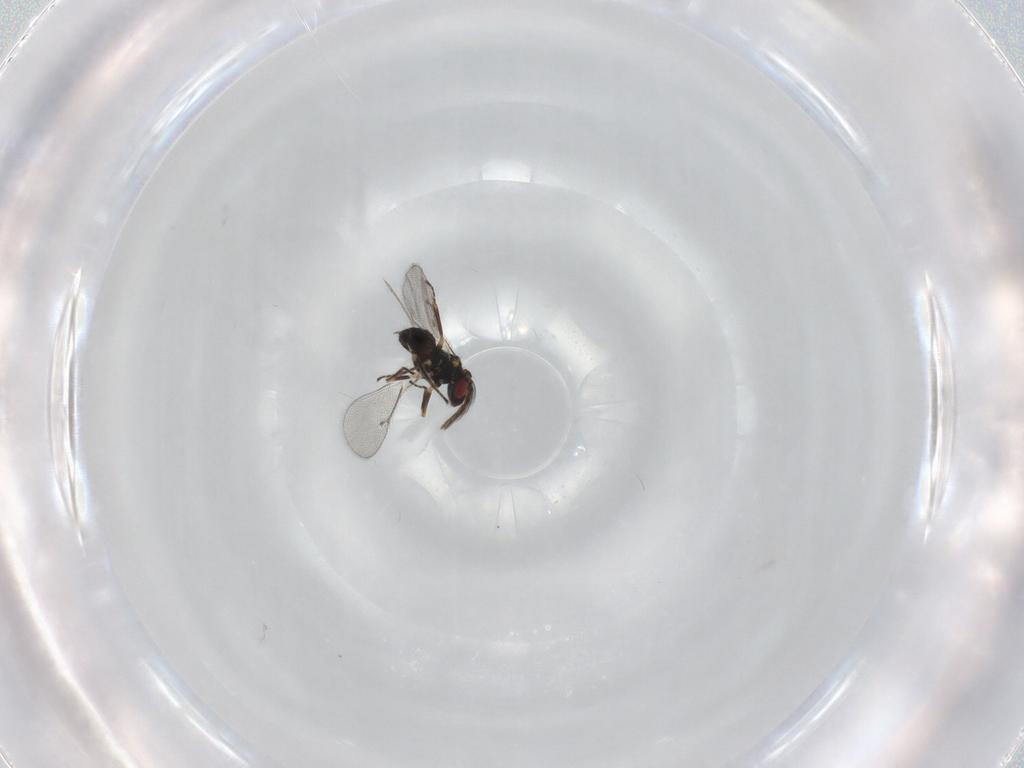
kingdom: Animalia
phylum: Arthropoda
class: Insecta
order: Hymenoptera
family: Eulophidae
